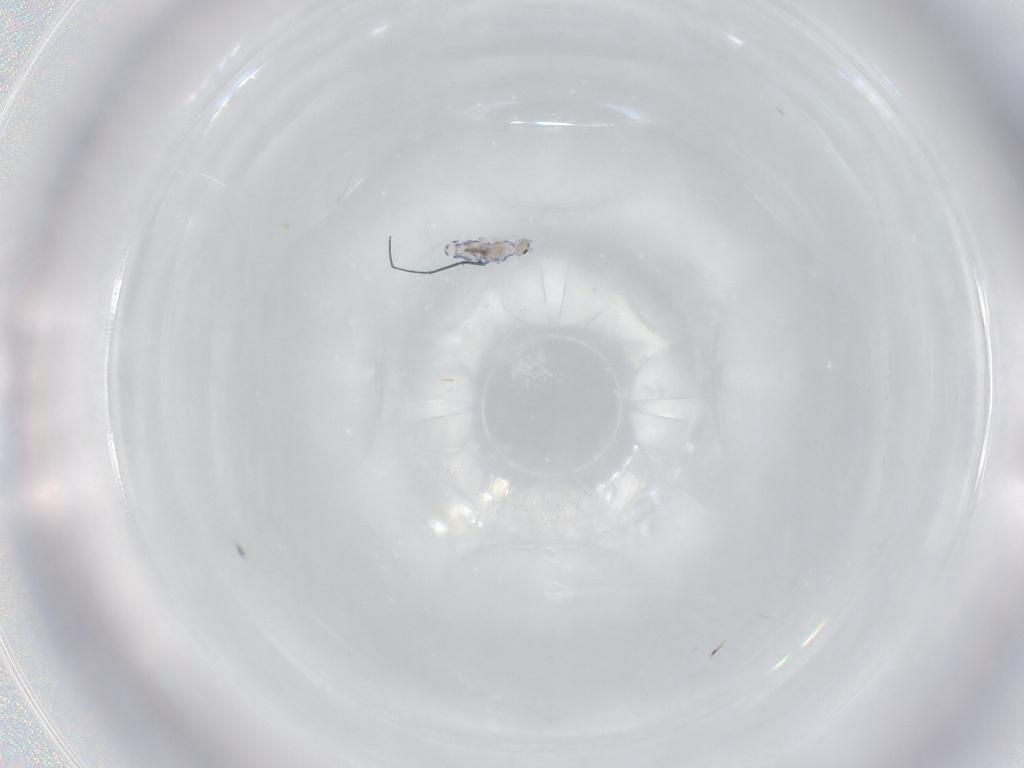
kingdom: Animalia
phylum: Arthropoda
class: Collembola
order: Entomobryomorpha
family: Entomobryidae
